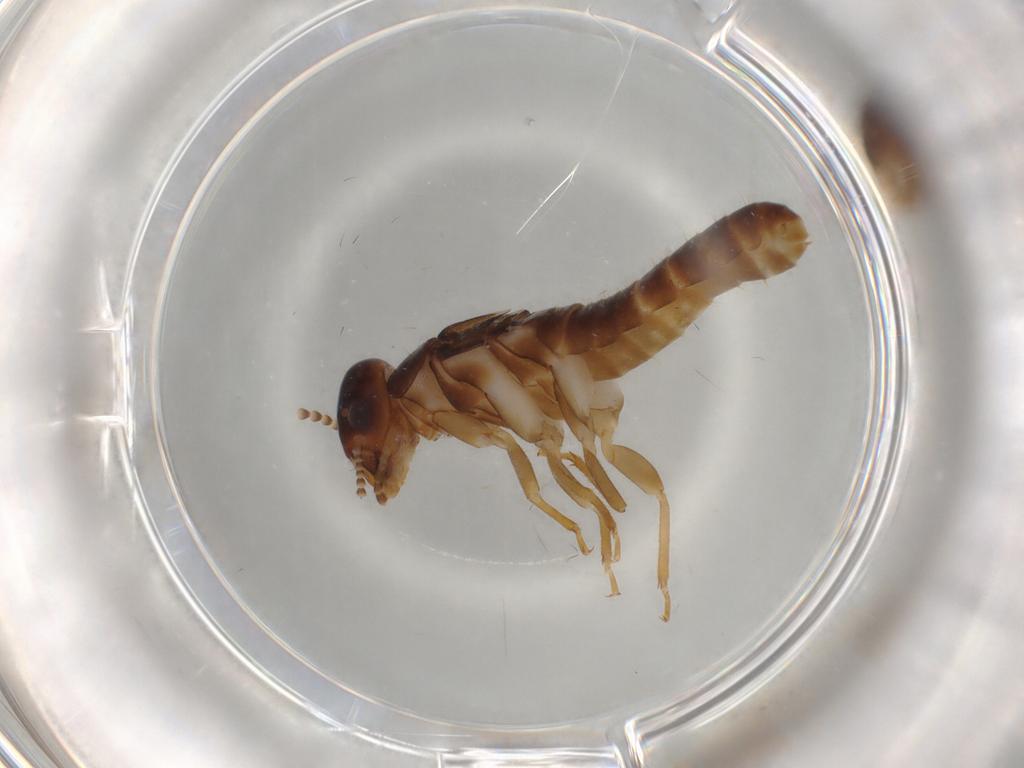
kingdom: Animalia
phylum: Arthropoda
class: Insecta
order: Blattodea
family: Kalotermitidae
